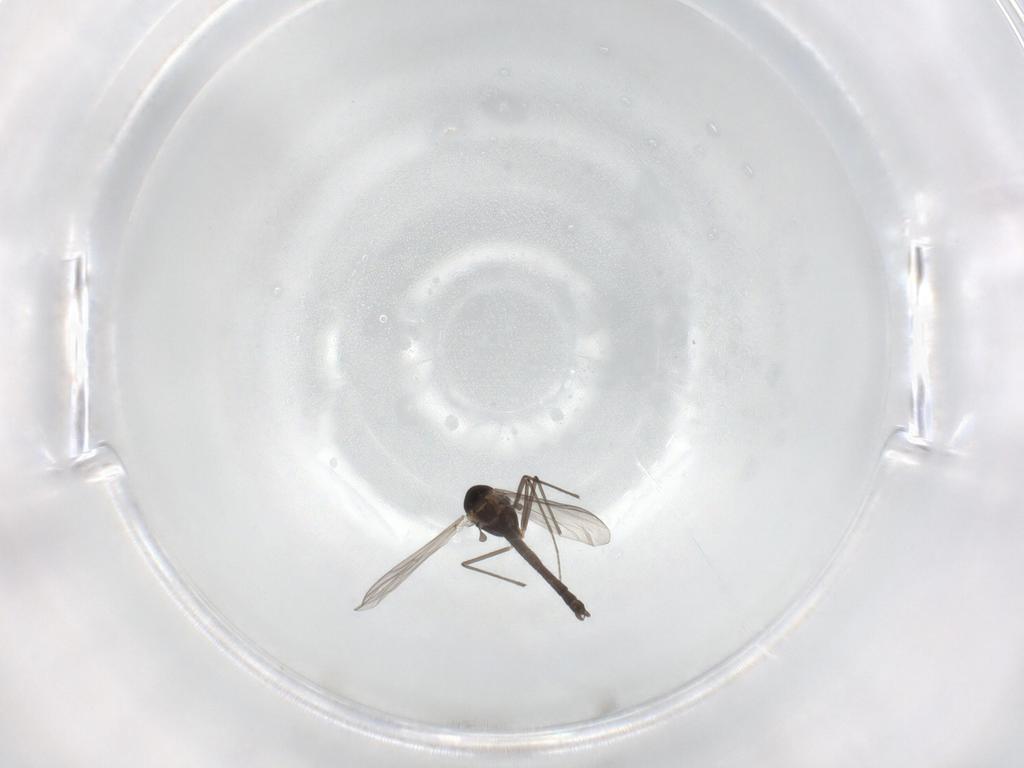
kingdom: Animalia
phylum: Arthropoda
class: Insecta
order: Diptera
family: Chironomidae
